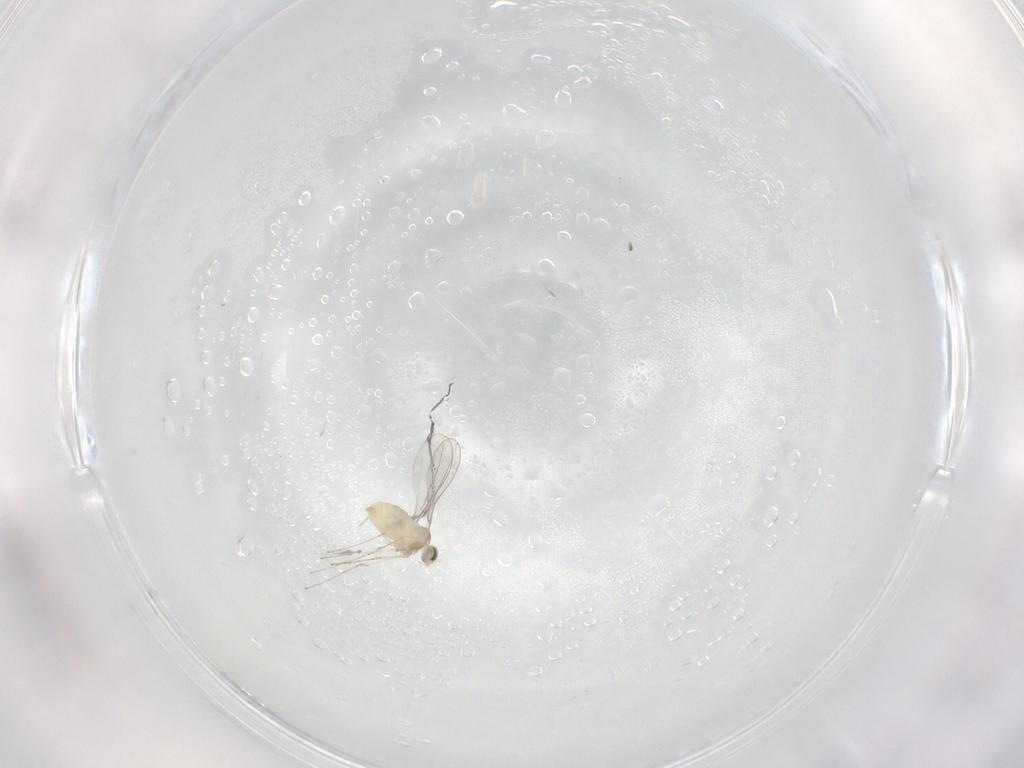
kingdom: Animalia
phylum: Arthropoda
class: Insecta
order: Diptera
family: Cecidomyiidae
